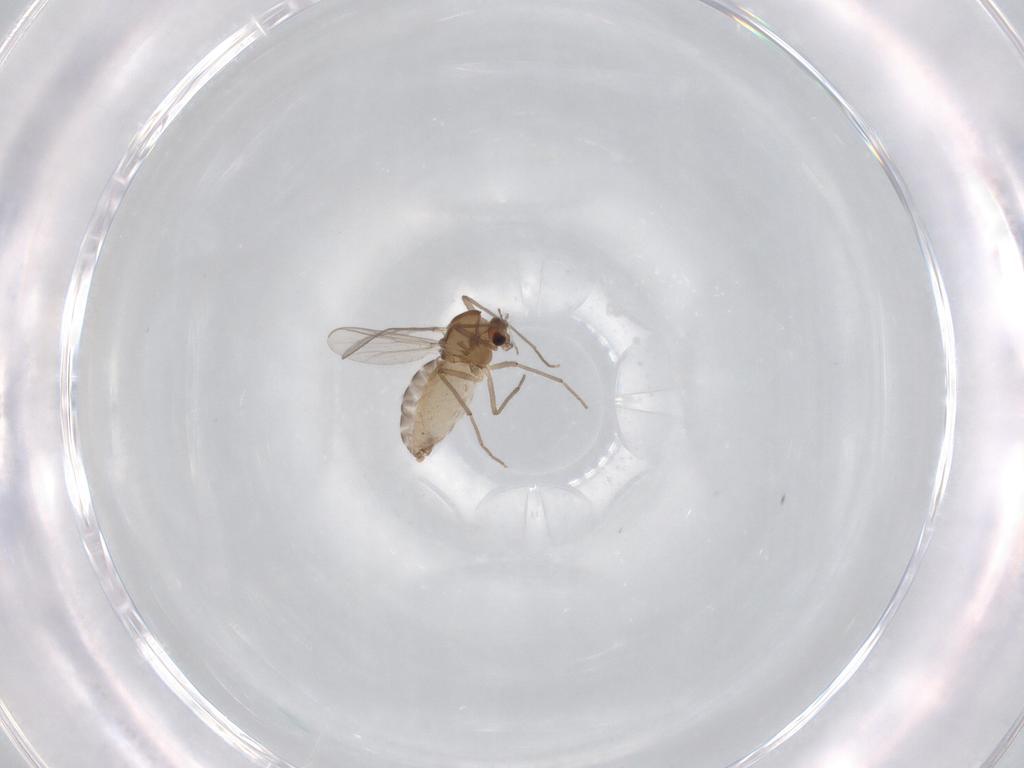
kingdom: Animalia
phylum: Arthropoda
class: Insecta
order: Diptera
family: Chironomidae
